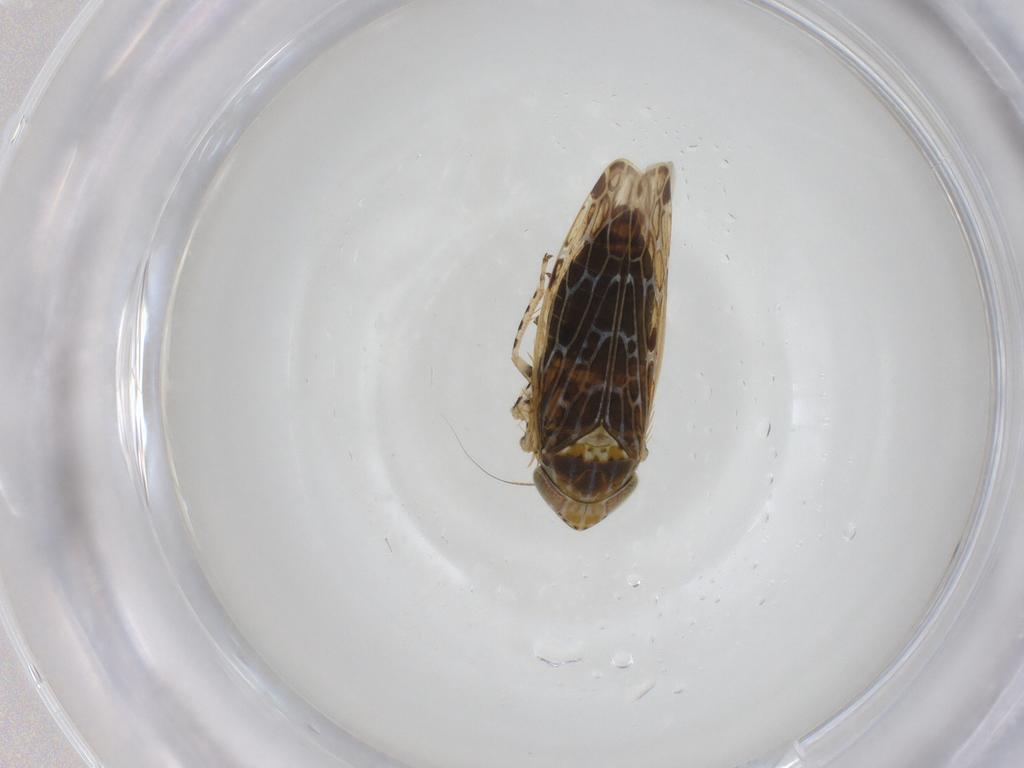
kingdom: Animalia
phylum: Arthropoda
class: Insecta
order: Hemiptera
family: Cicadellidae
